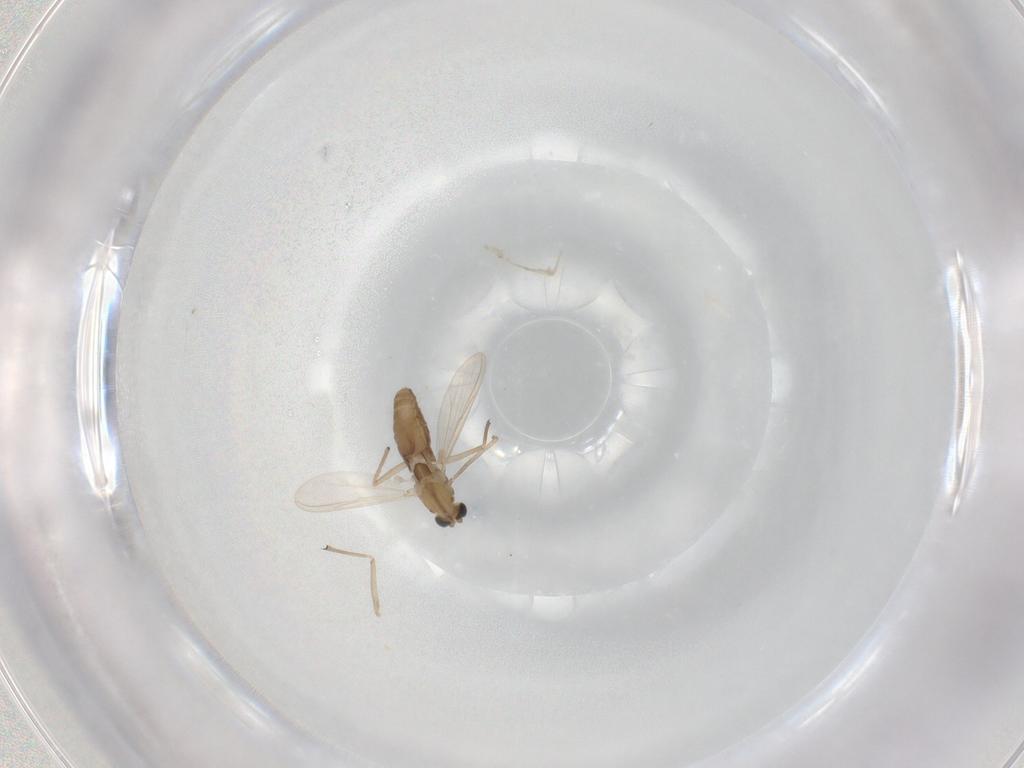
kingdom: Animalia
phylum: Arthropoda
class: Insecta
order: Diptera
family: Chironomidae
